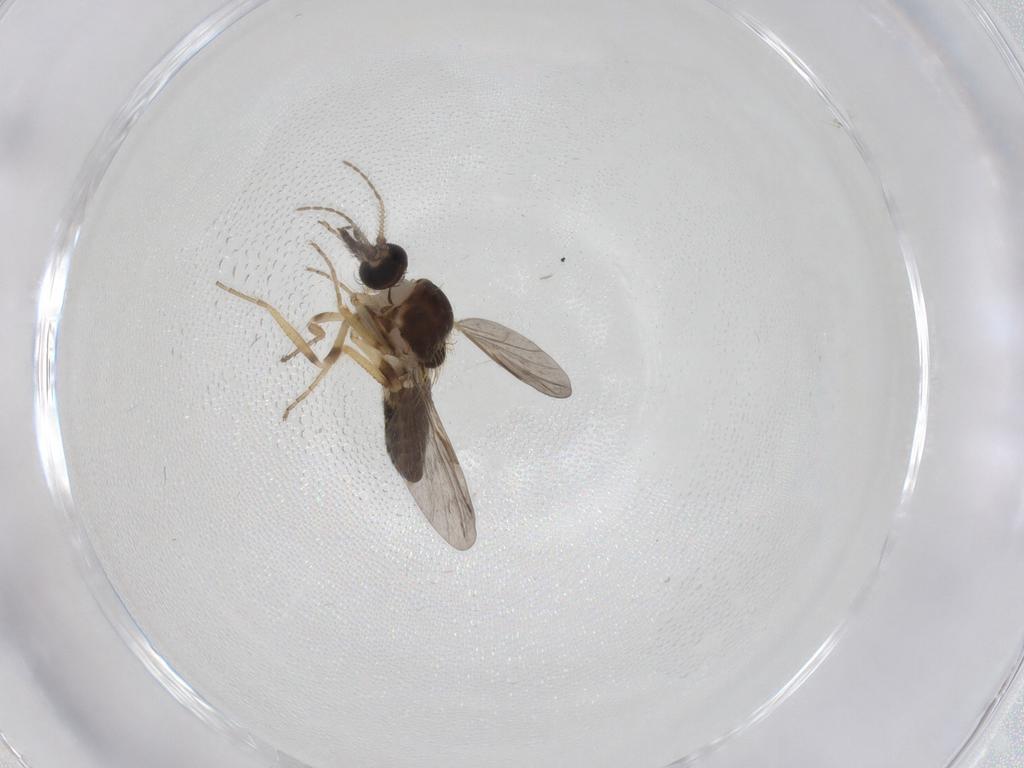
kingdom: Animalia
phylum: Arthropoda
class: Insecta
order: Diptera
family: Ceratopogonidae
